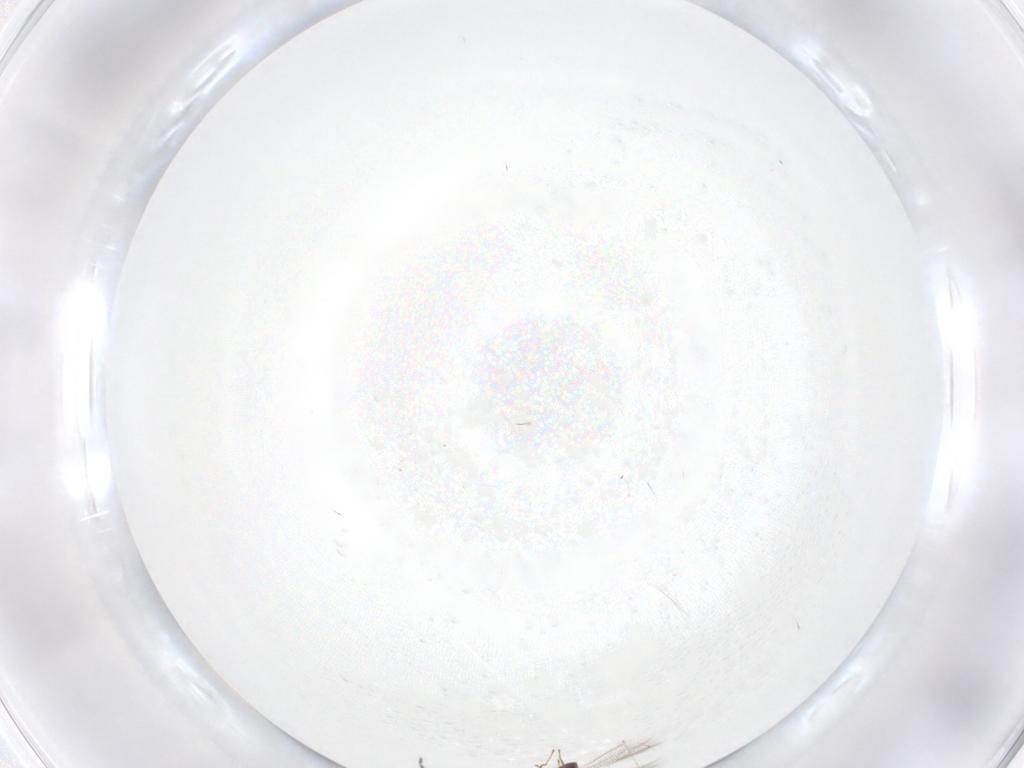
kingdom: Animalia
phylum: Arthropoda
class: Insecta
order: Diptera
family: Cecidomyiidae
